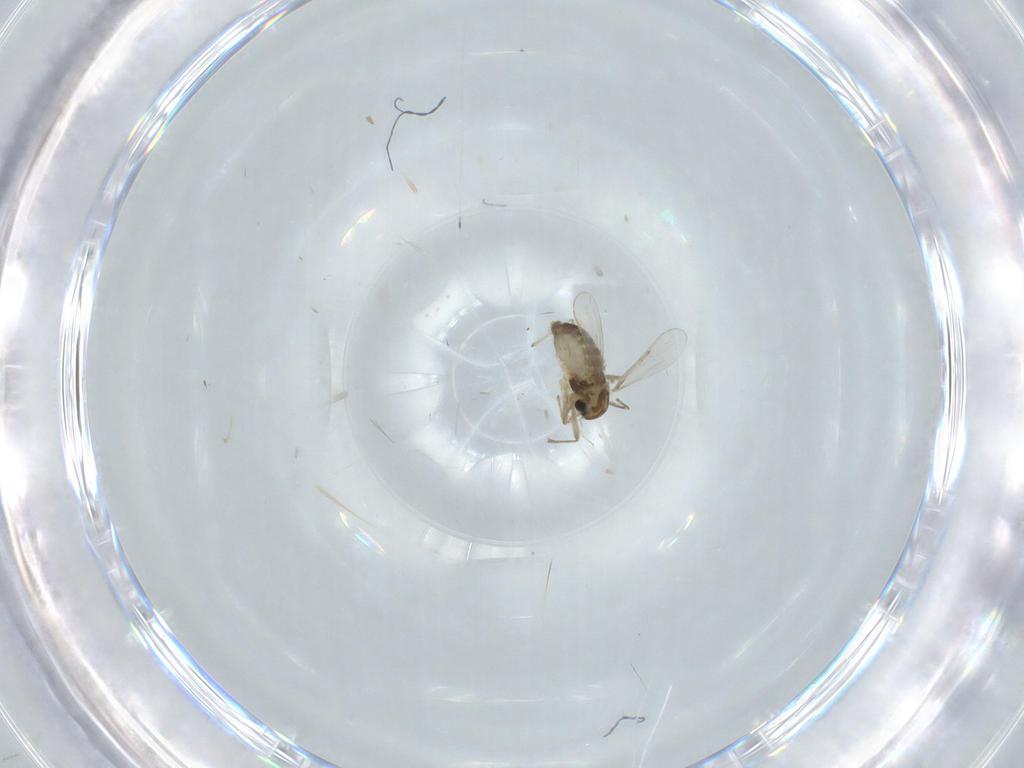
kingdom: Animalia
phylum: Arthropoda
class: Insecta
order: Diptera
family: Chironomidae
